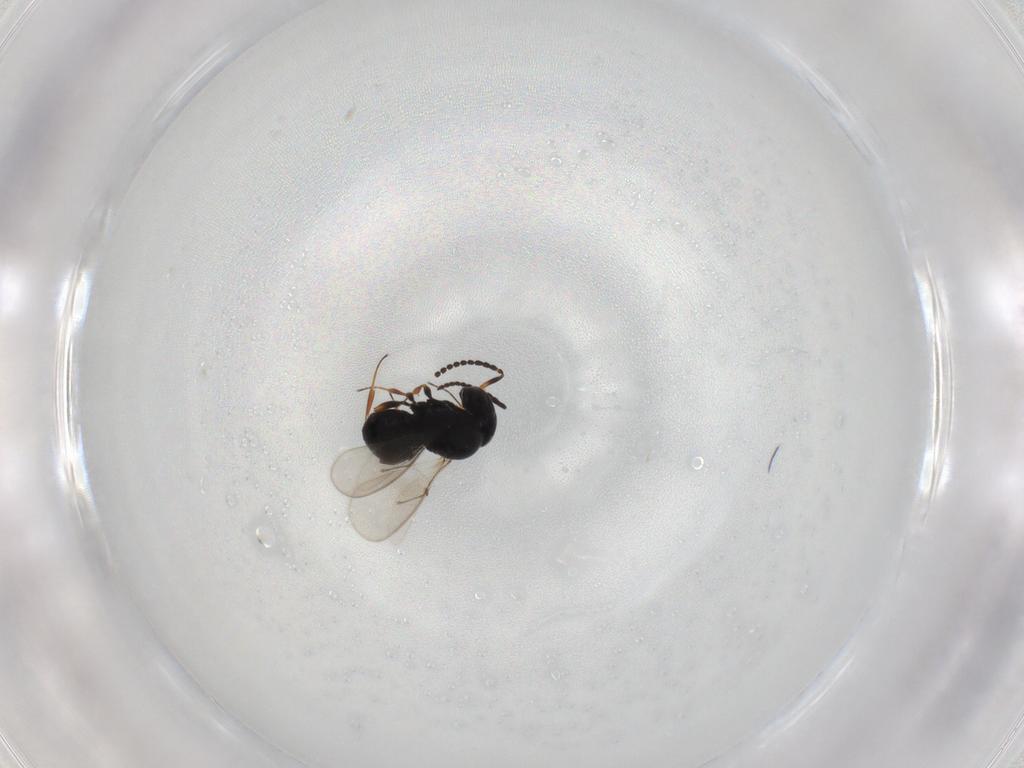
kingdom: Animalia
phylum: Arthropoda
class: Insecta
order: Hymenoptera
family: Scelionidae
